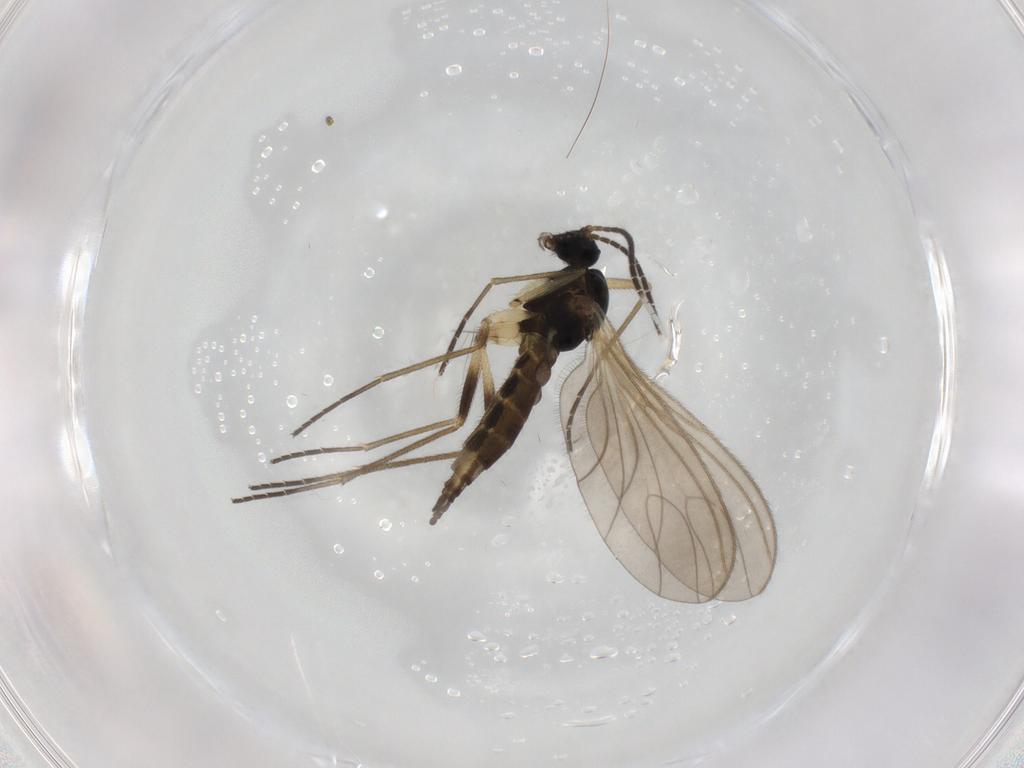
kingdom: Animalia
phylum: Arthropoda
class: Insecta
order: Diptera
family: Sciaridae
